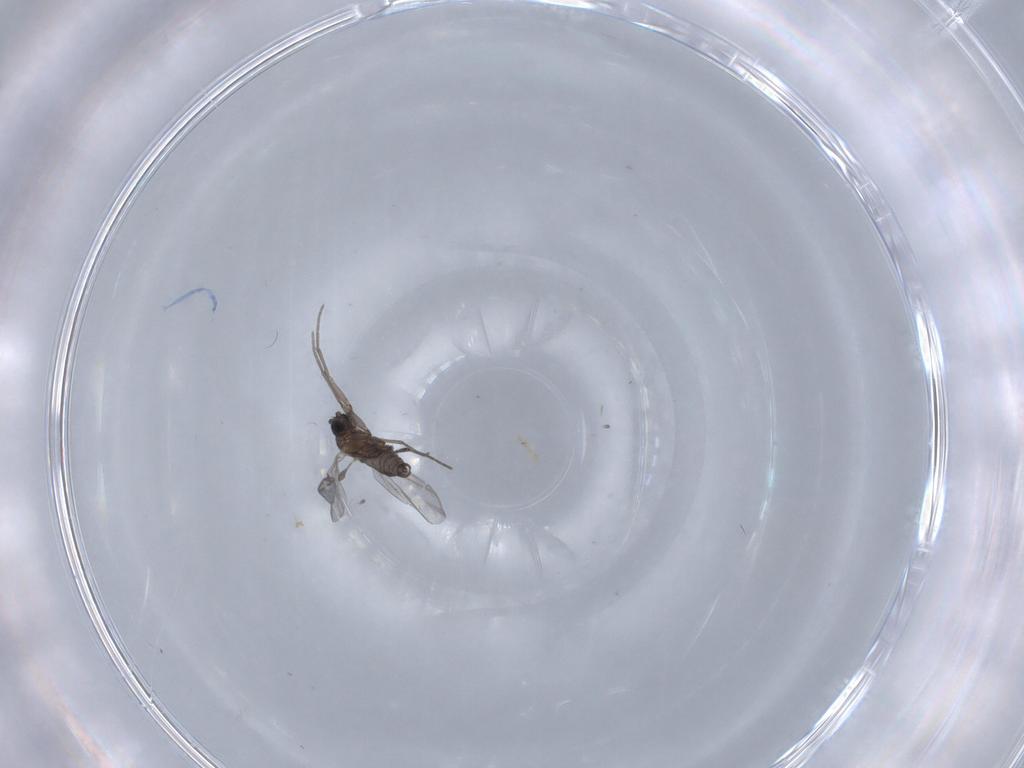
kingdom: Animalia
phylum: Arthropoda
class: Insecta
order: Diptera
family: Sciaridae
